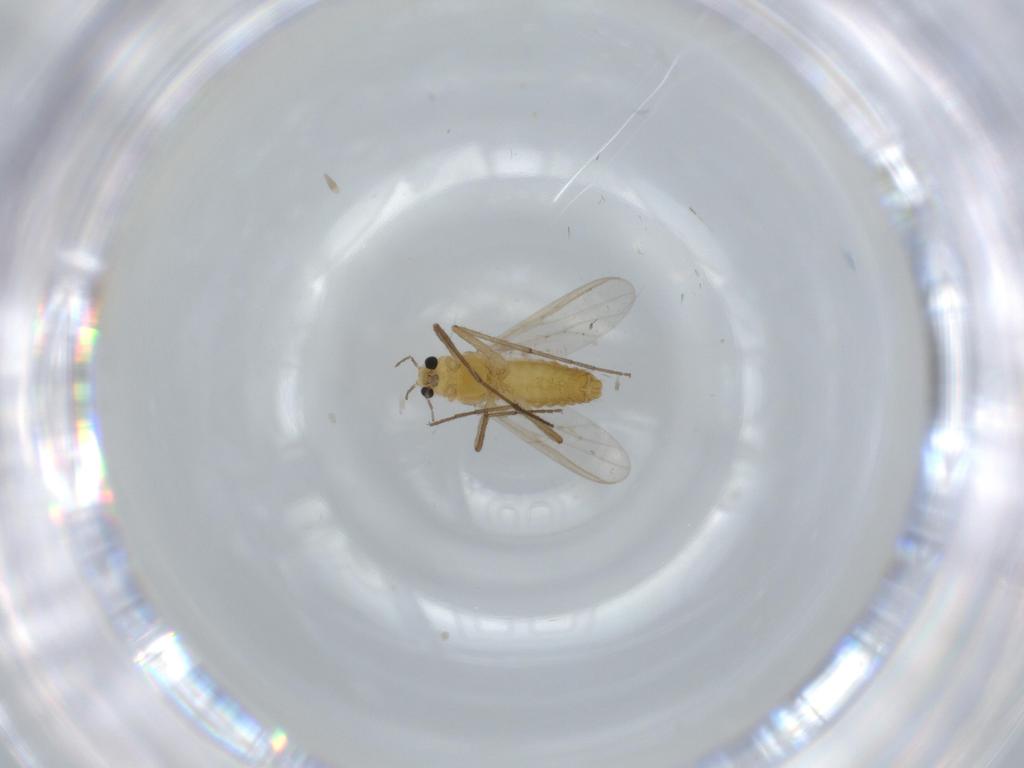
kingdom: Animalia
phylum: Arthropoda
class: Insecta
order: Diptera
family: Chironomidae
